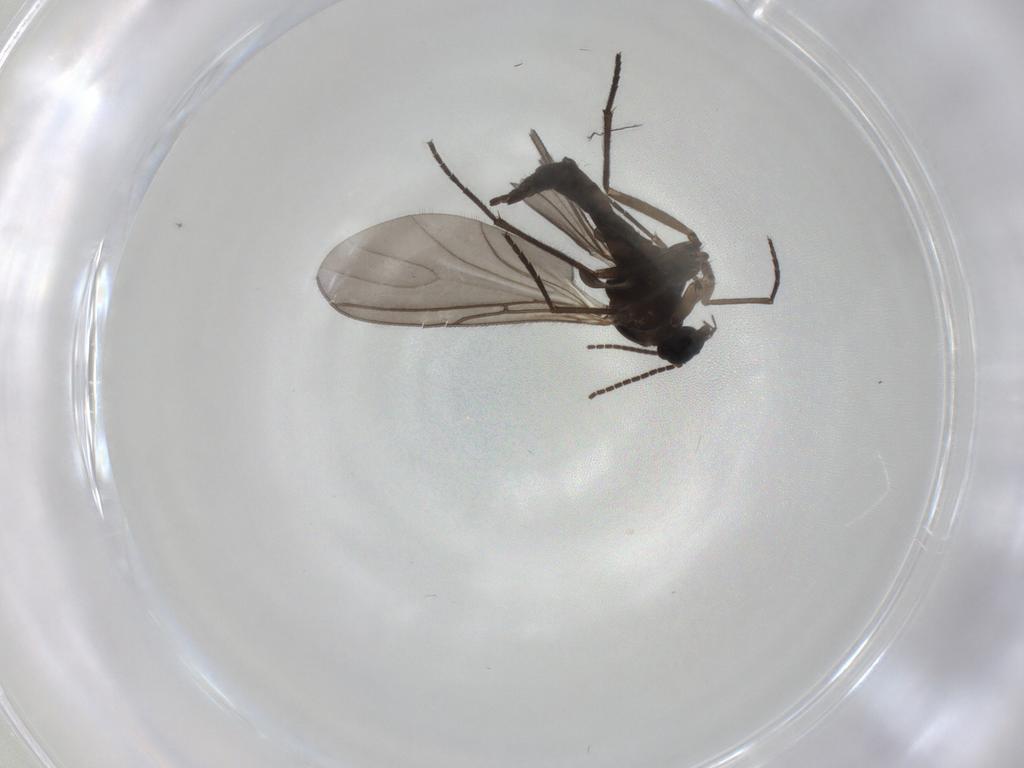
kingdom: Animalia
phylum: Arthropoda
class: Insecta
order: Diptera
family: Sciaridae
